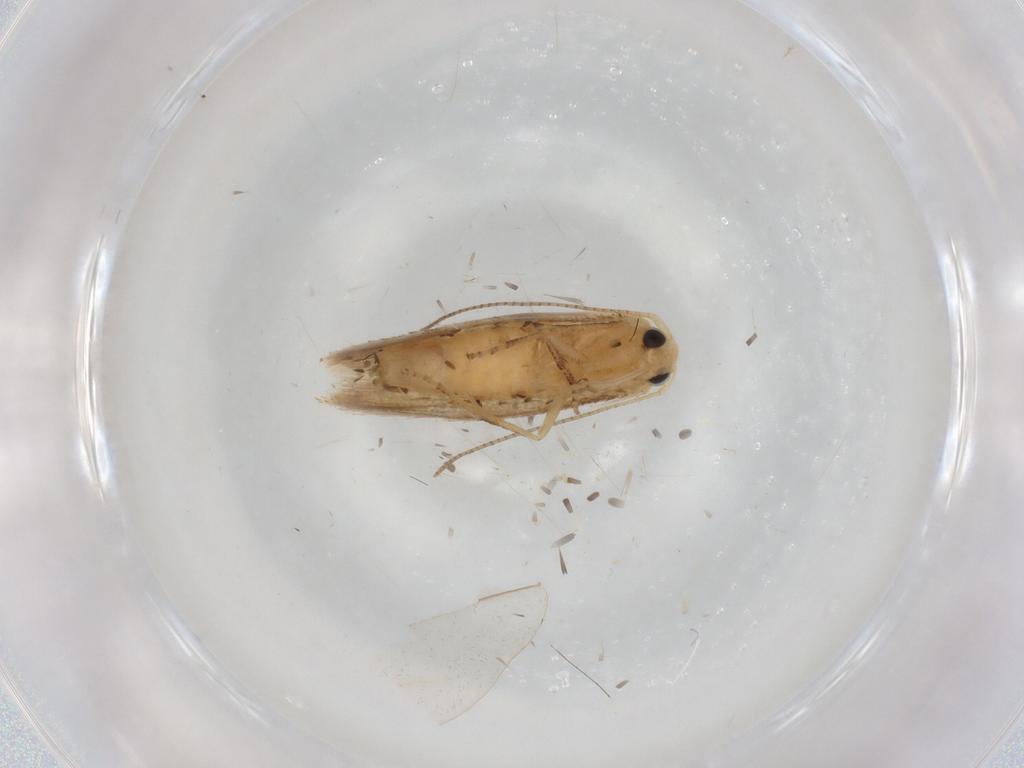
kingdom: Animalia
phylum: Arthropoda
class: Insecta
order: Lepidoptera
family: Bucculatricidae
